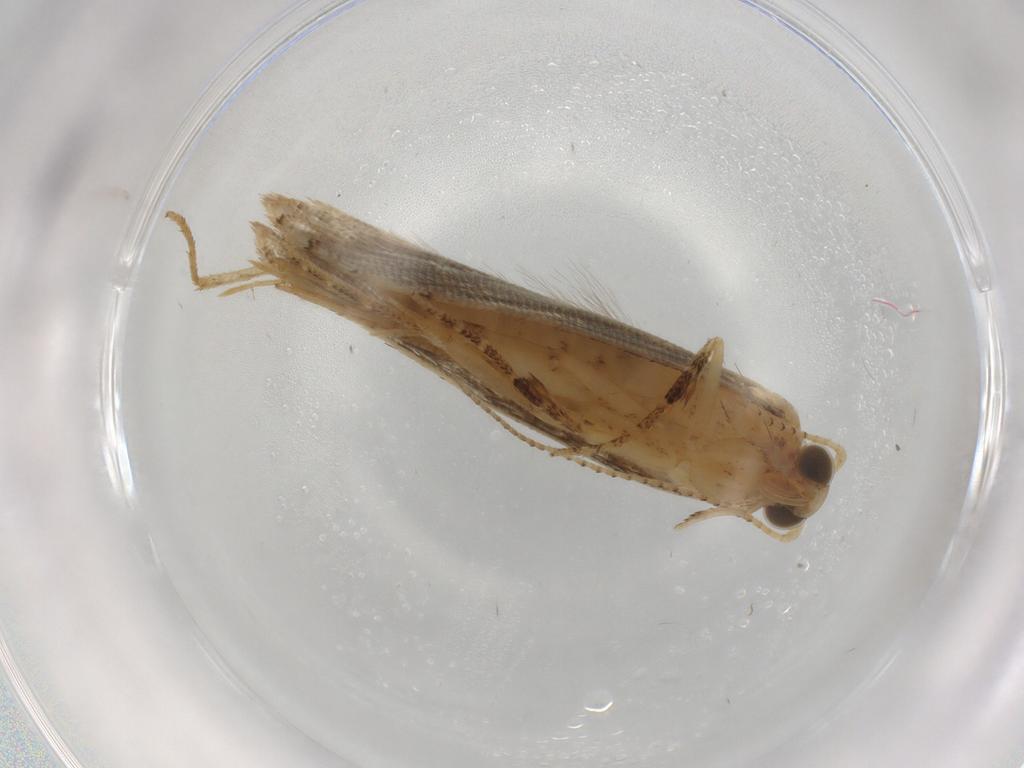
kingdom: Animalia
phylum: Arthropoda
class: Insecta
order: Lepidoptera
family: Crambidae
